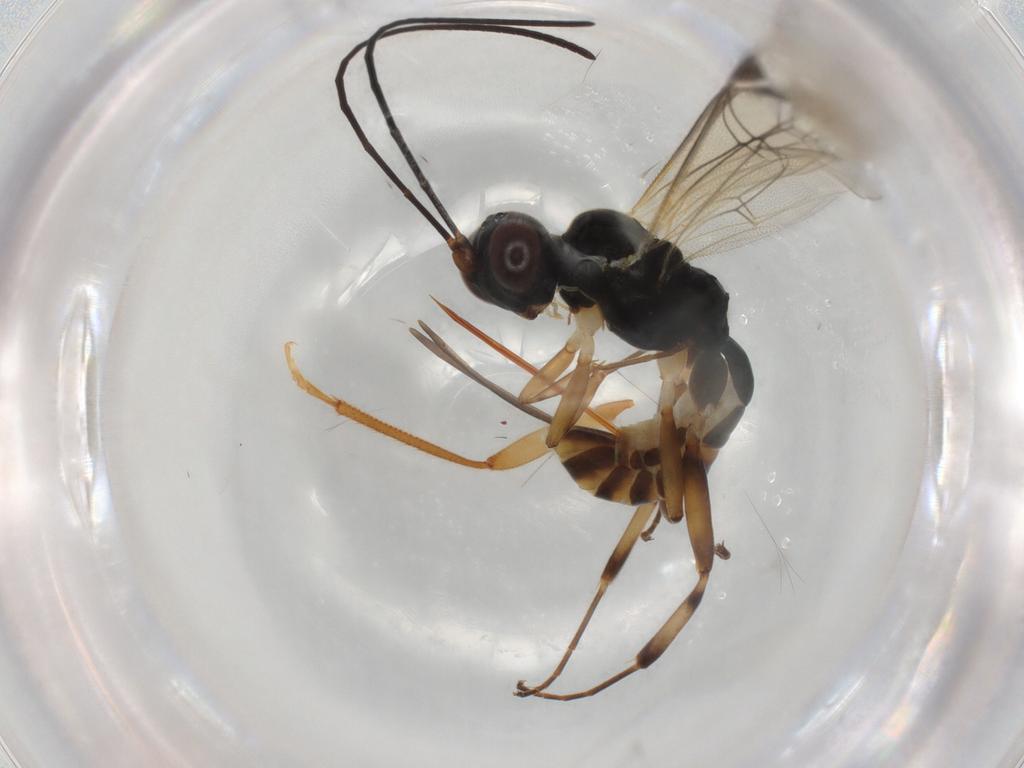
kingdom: Animalia
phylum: Arthropoda
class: Insecta
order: Hymenoptera
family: Ichneumonidae
